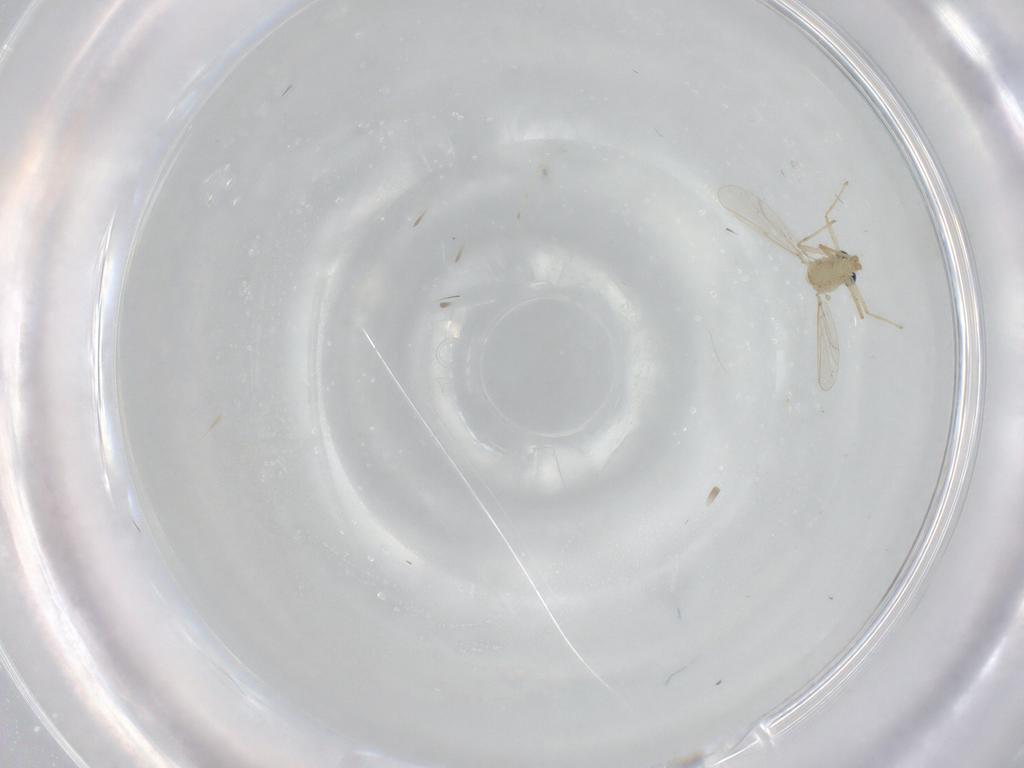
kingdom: Animalia
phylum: Arthropoda
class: Insecta
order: Diptera
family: Chironomidae
